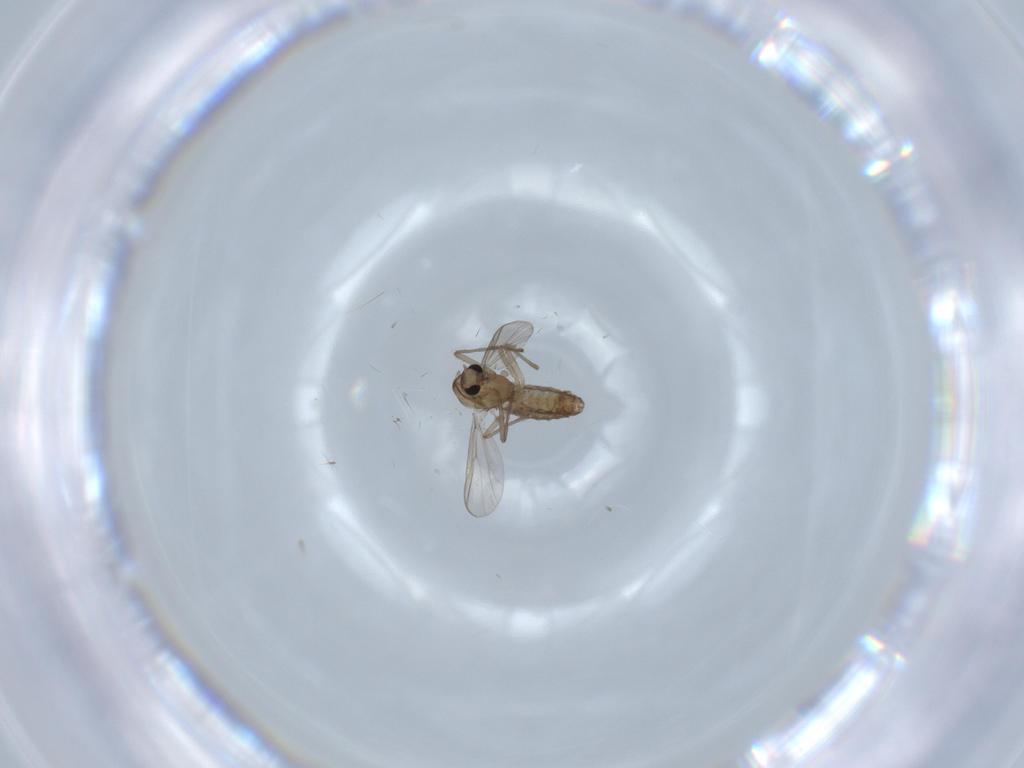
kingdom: Animalia
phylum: Arthropoda
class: Insecta
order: Diptera
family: Chironomidae
